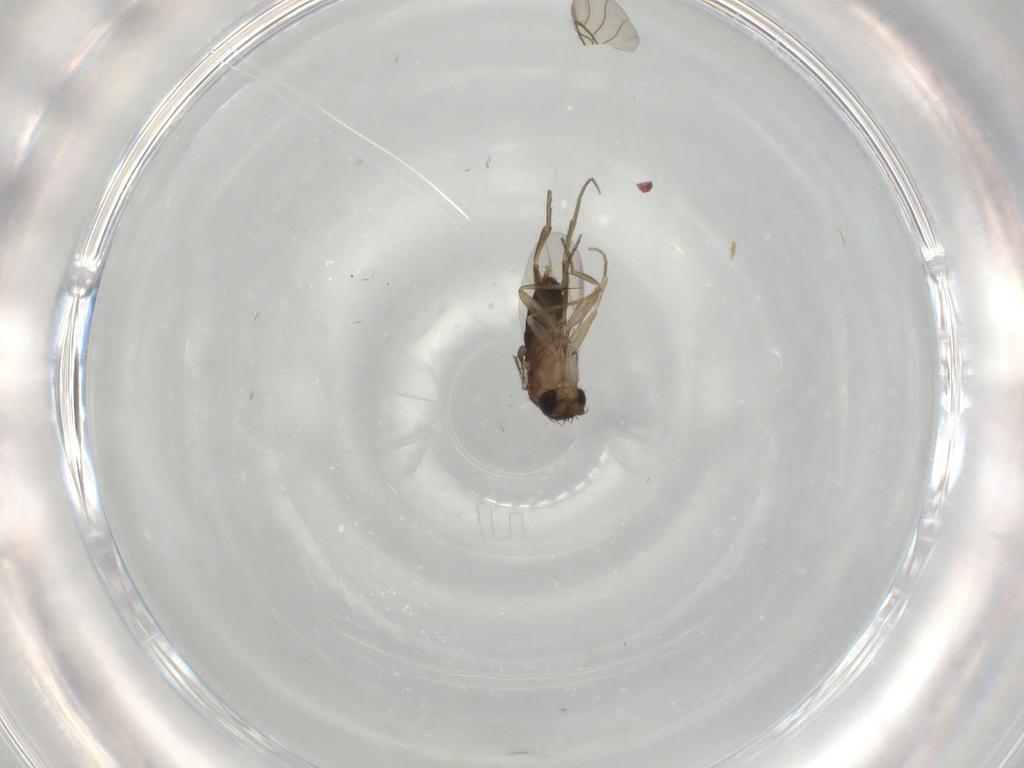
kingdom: Animalia
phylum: Arthropoda
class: Insecta
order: Diptera
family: Phoridae
